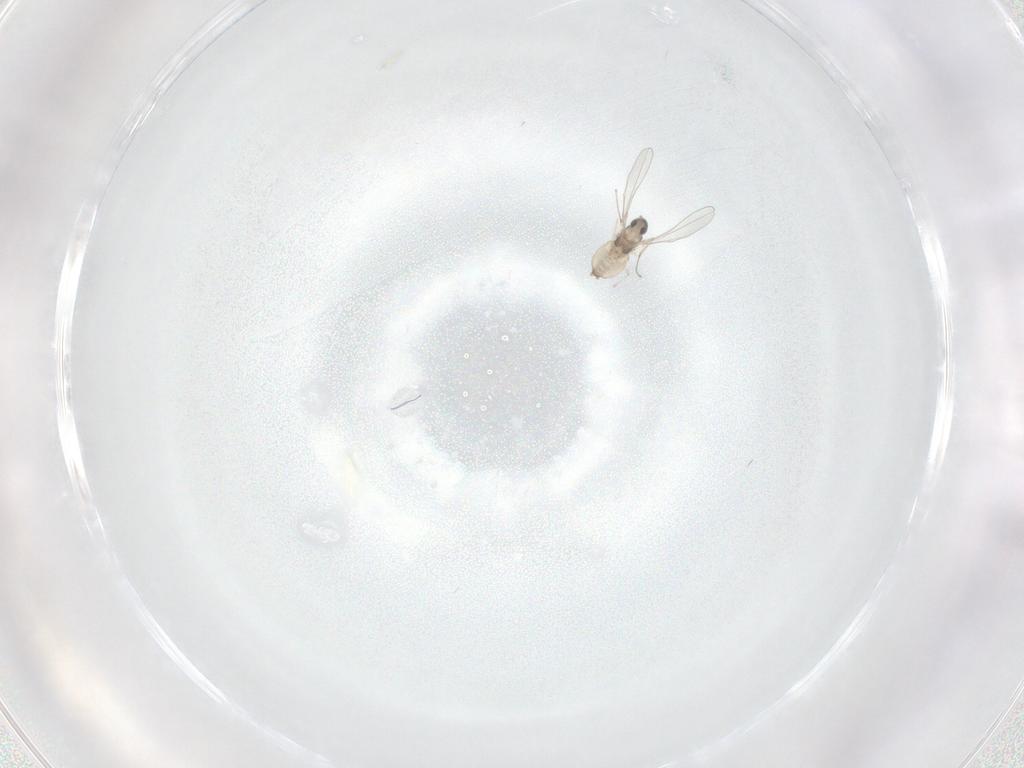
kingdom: Animalia
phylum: Arthropoda
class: Insecta
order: Diptera
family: Cecidomyiidae
